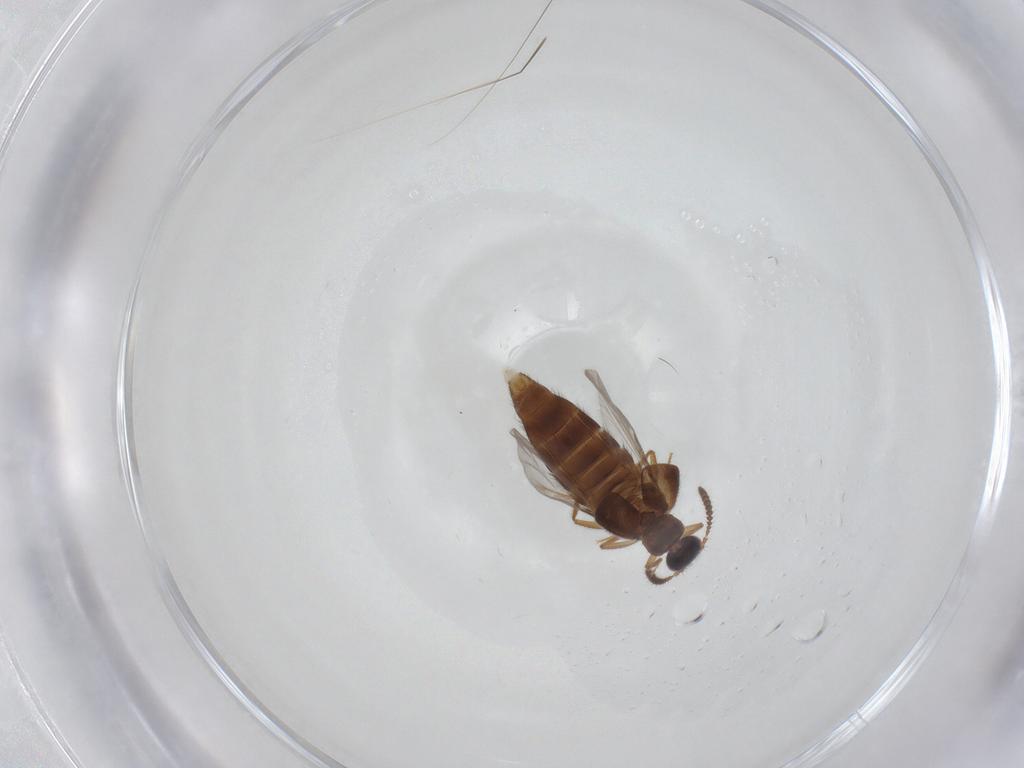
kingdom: Animalia
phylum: Arthropoda
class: Insecta
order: Coleoptera
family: Staphylinidae
